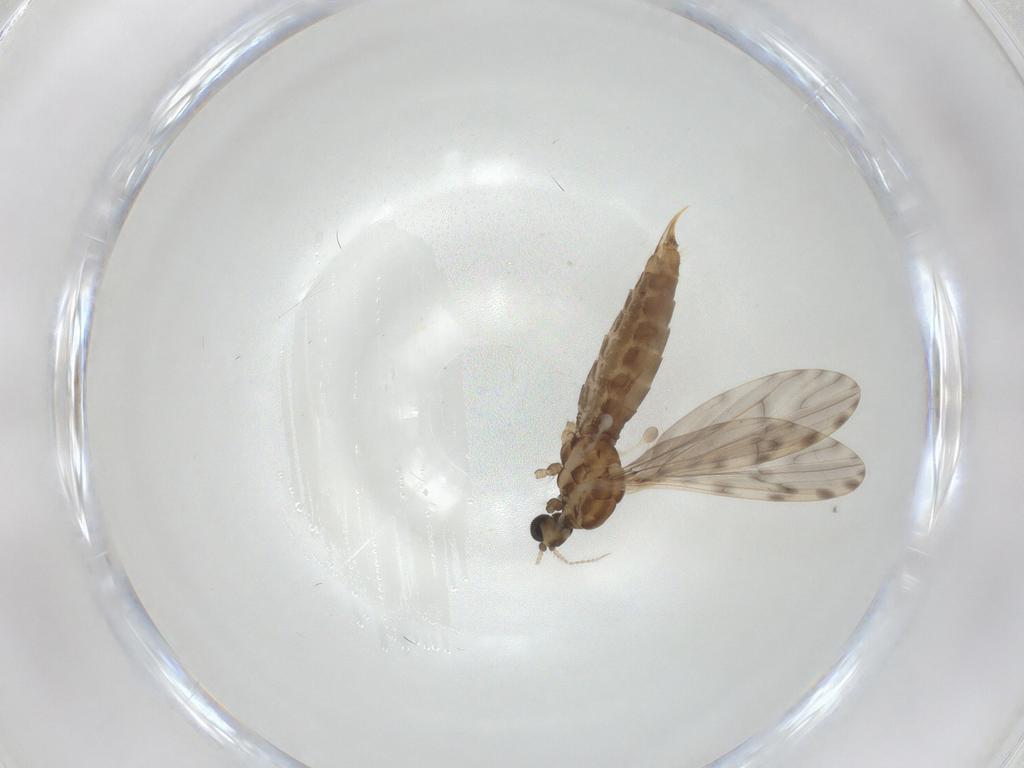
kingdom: Animalia
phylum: Arthropoda
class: Insecta
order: Diptera
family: Limoniidae
